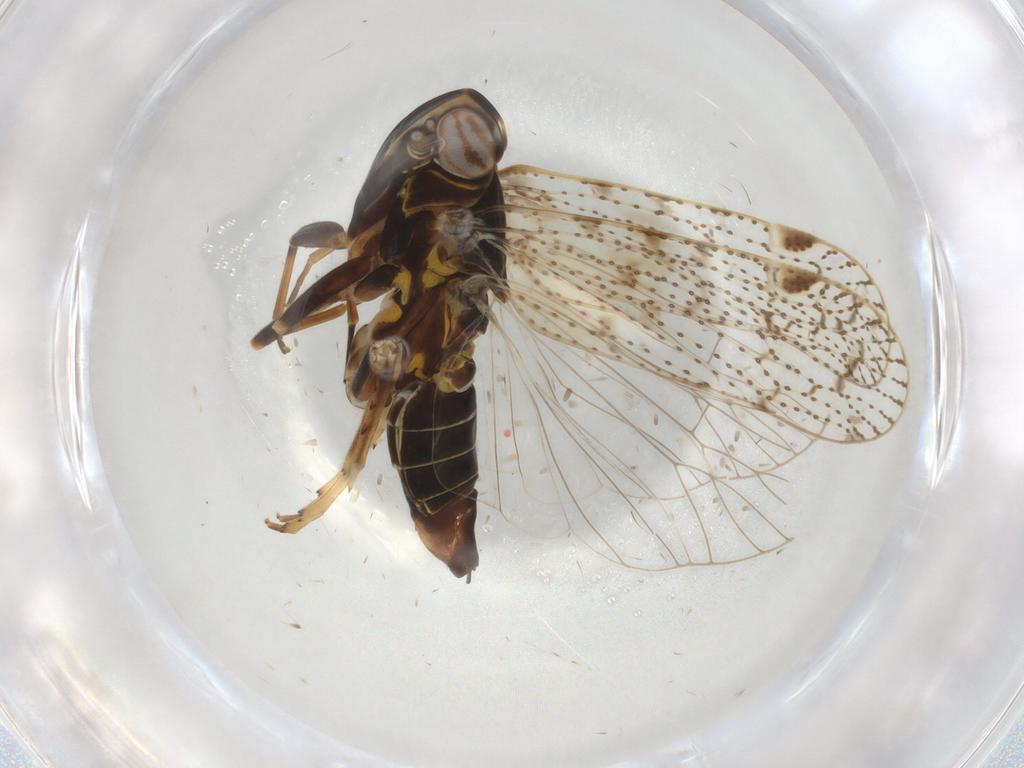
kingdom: Animalia
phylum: Arthropoda
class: Insecta
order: Hemiptera
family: Cixiidae
